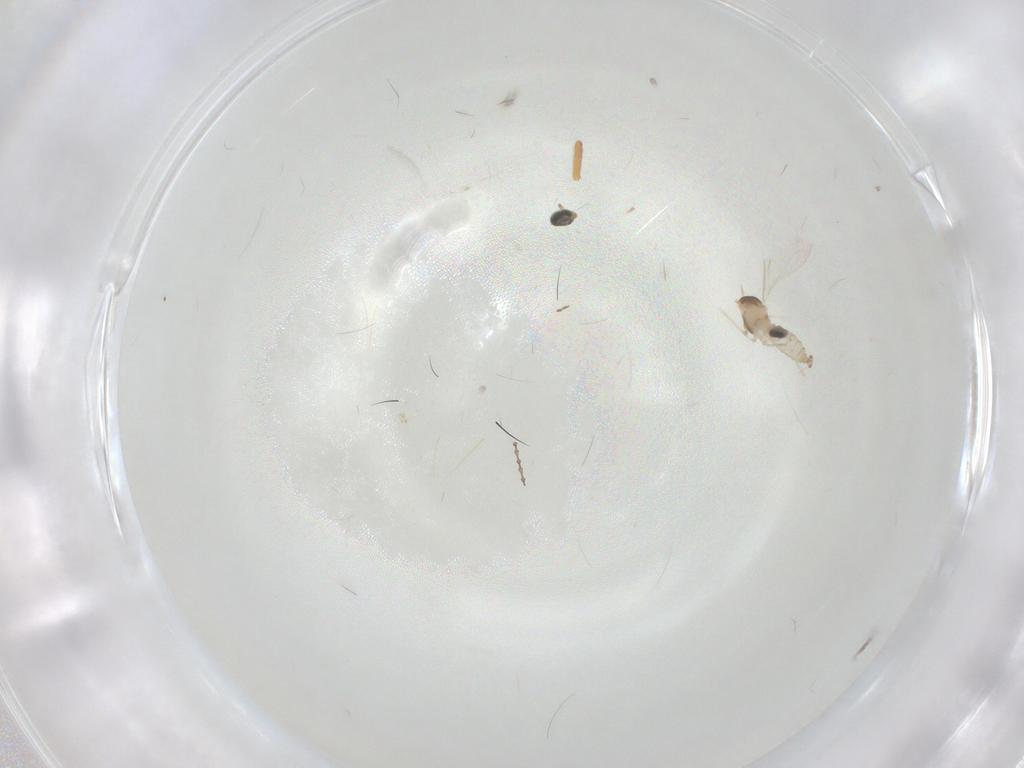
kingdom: Animalia
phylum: Arthropoda
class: Insecta
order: Diptera
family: Cecidomyiidae
